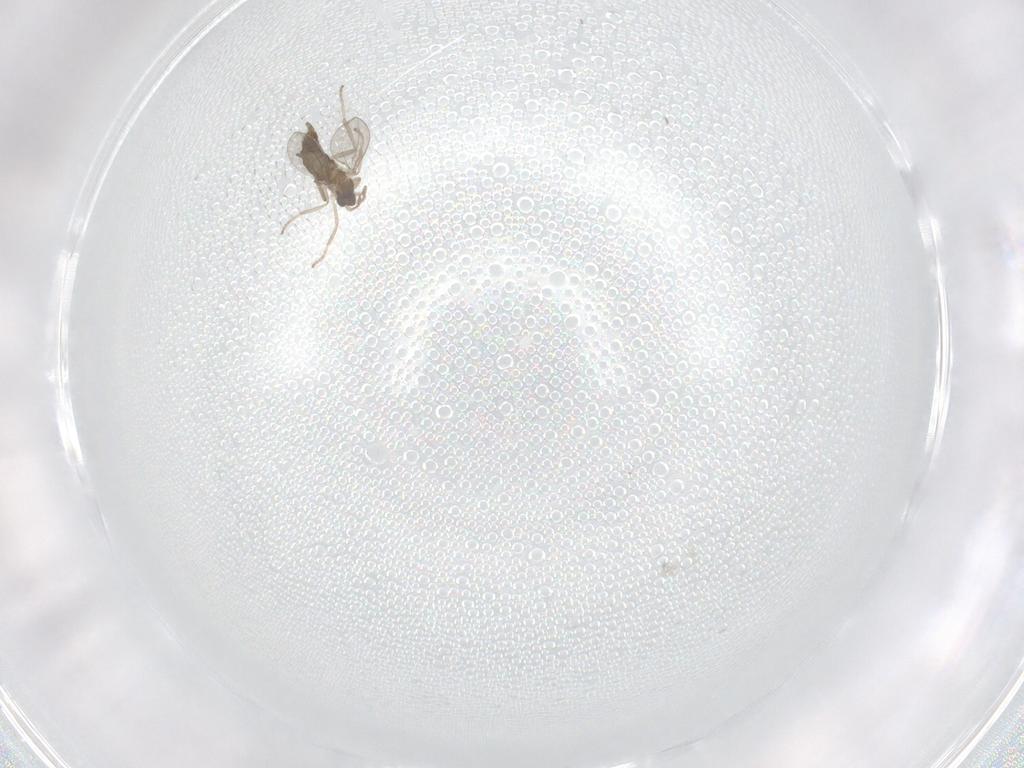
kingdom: Animalia
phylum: Arthropoda
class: Insecta
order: Diptera
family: Cecidomyiidae
